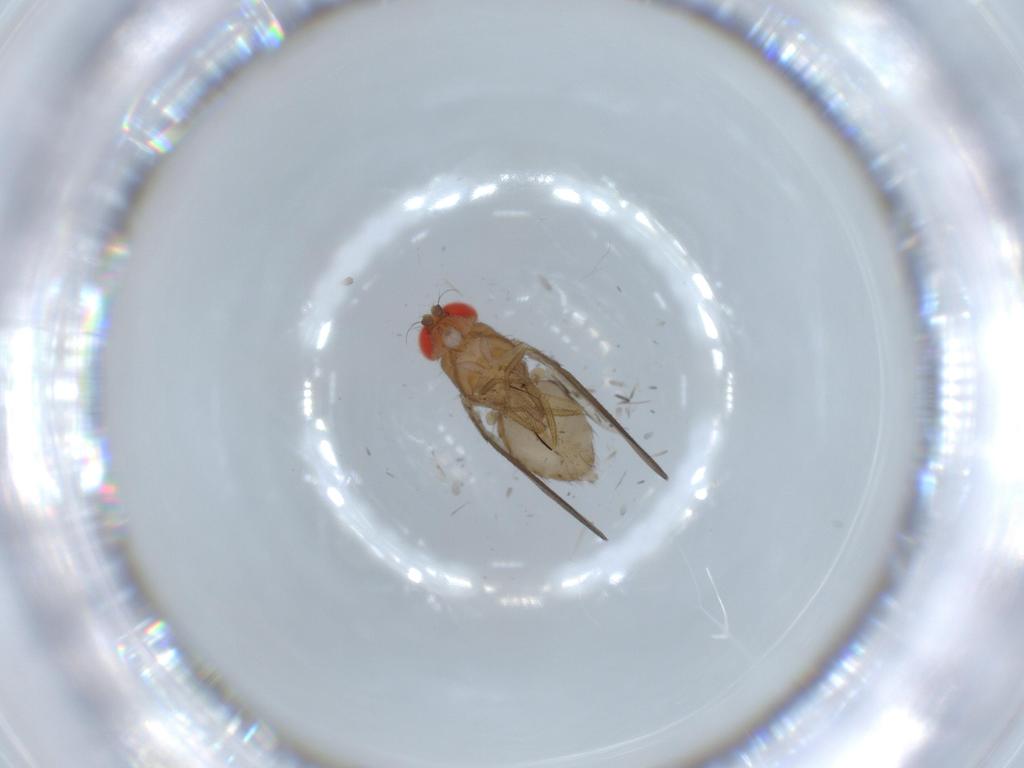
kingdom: Animalia
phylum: Arthropoda
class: Insecta
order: Diptera
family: Drosophilidae
